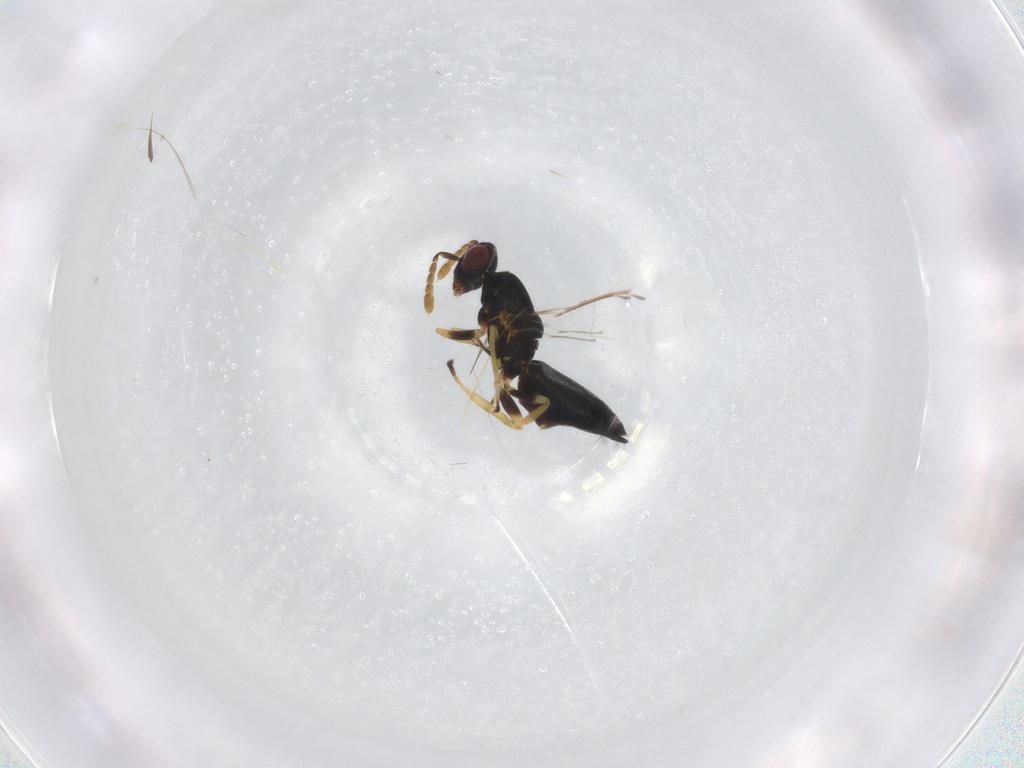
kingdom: Animalia
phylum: Arthropoda
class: Insecta
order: Hymenoptera
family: Eulophidae
